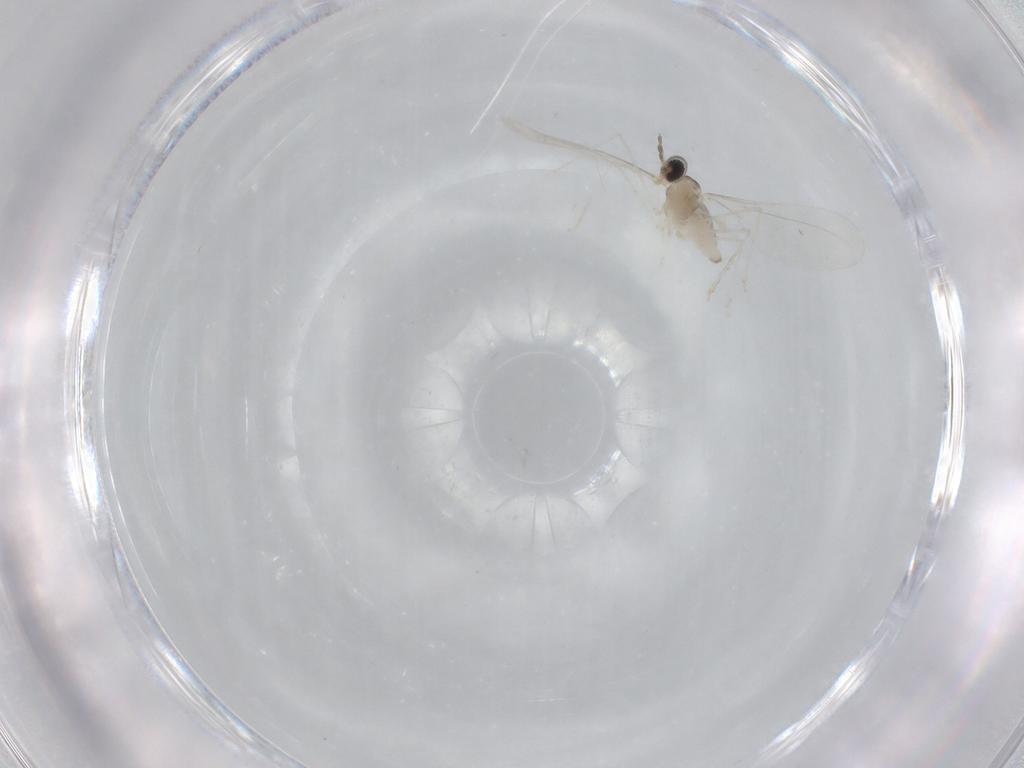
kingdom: Animalia
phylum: Arthropoda
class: Insecta
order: Diptera
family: Cecidomyiidae
